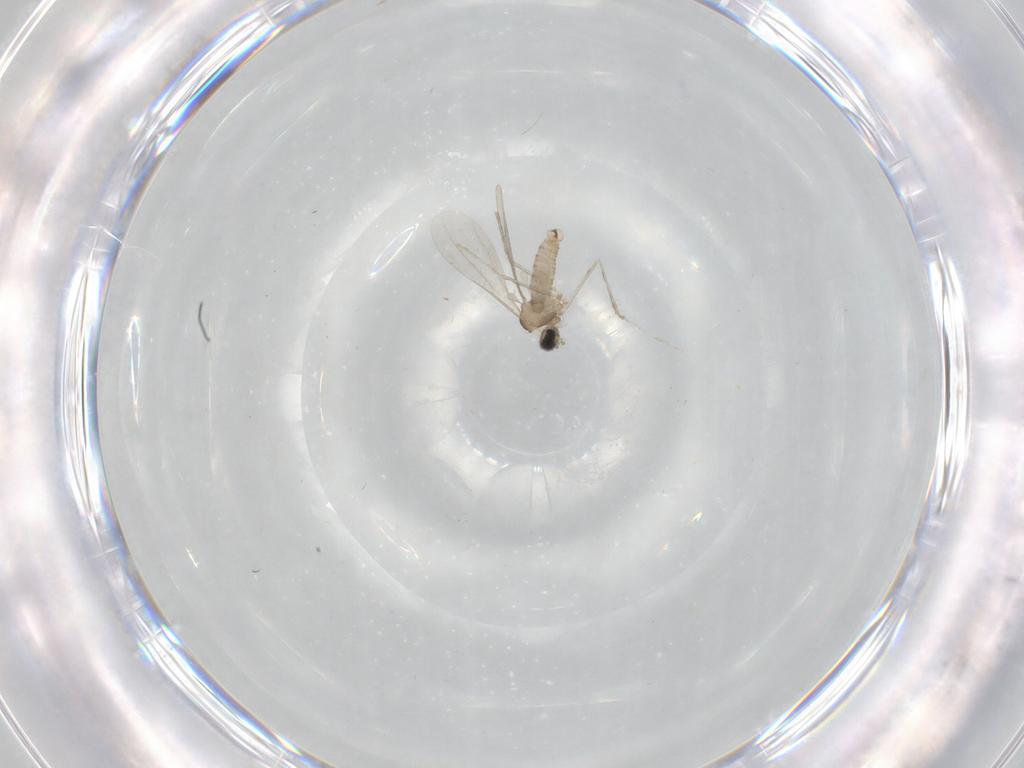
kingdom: Animalia
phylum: Arthropoda
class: Insecta
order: Diptera
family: Cecidomyiidae
